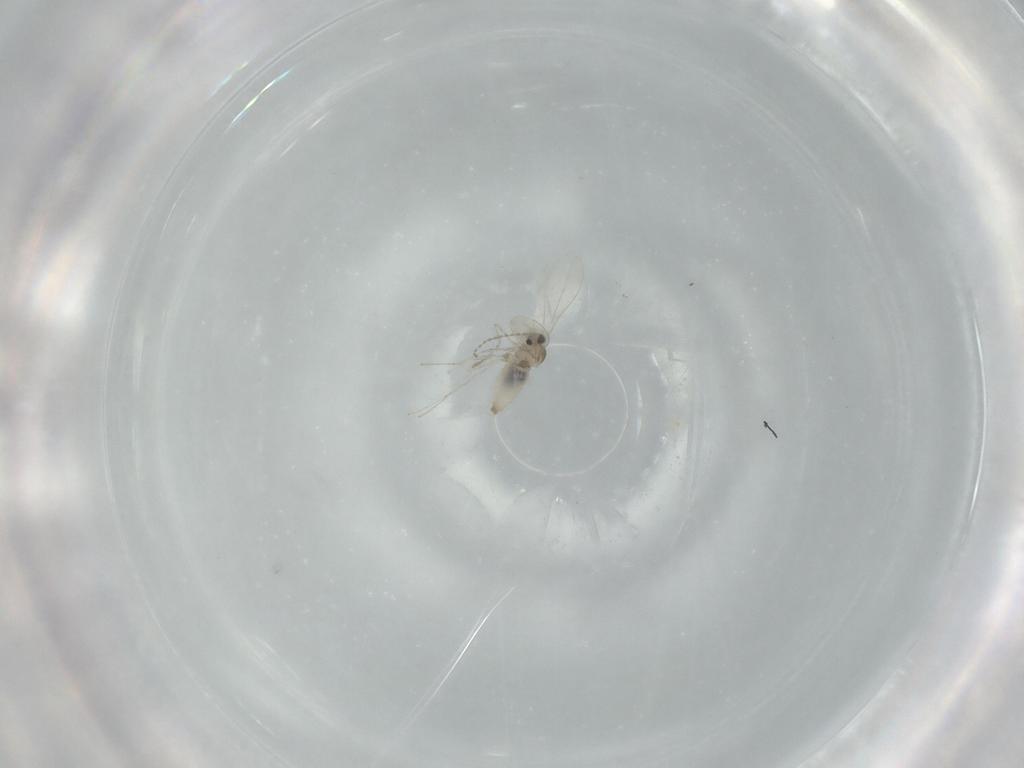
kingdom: Animalia
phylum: Arthropoda
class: Insecta
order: Diptera
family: Cecidomyiidae
